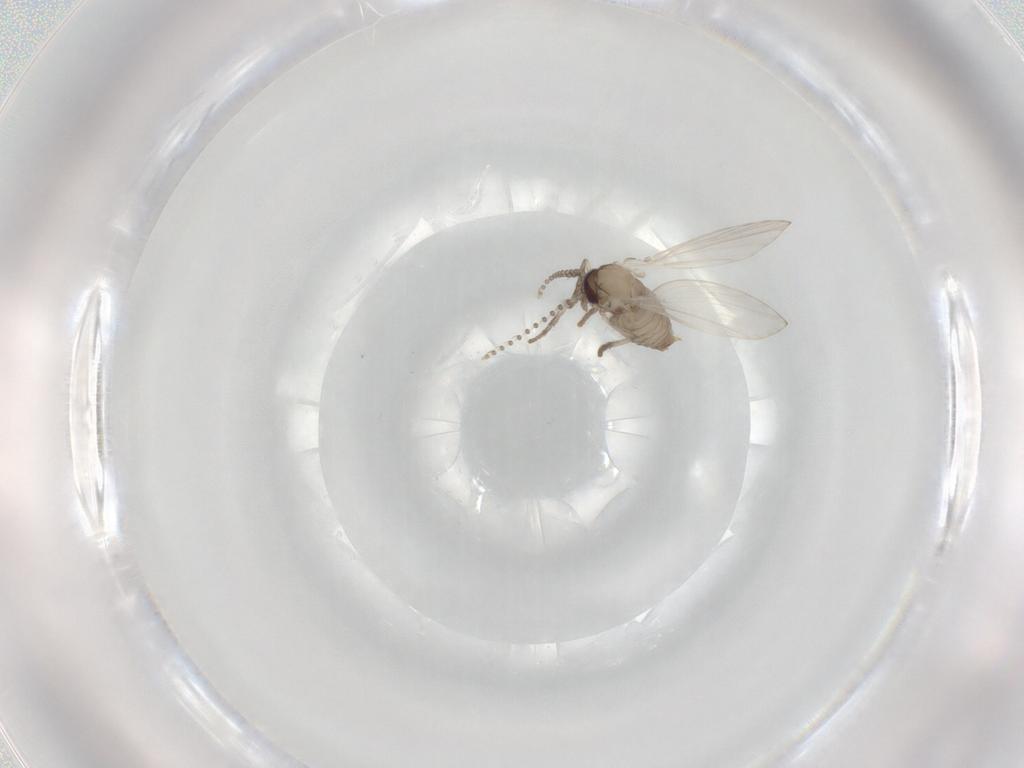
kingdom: Animalia
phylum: Arthropoda
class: Insecta
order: Diptera
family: Psychodidae
